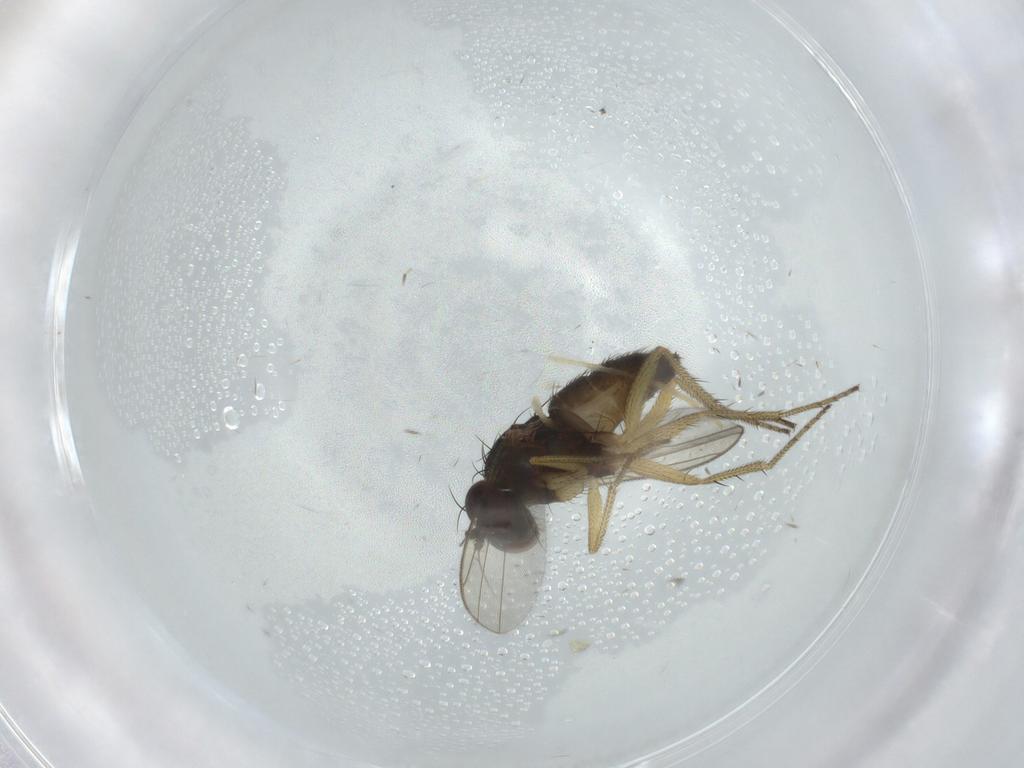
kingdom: Animalia
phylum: Arthropoda
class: Insecta
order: Diptera
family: Dolichopodidae
